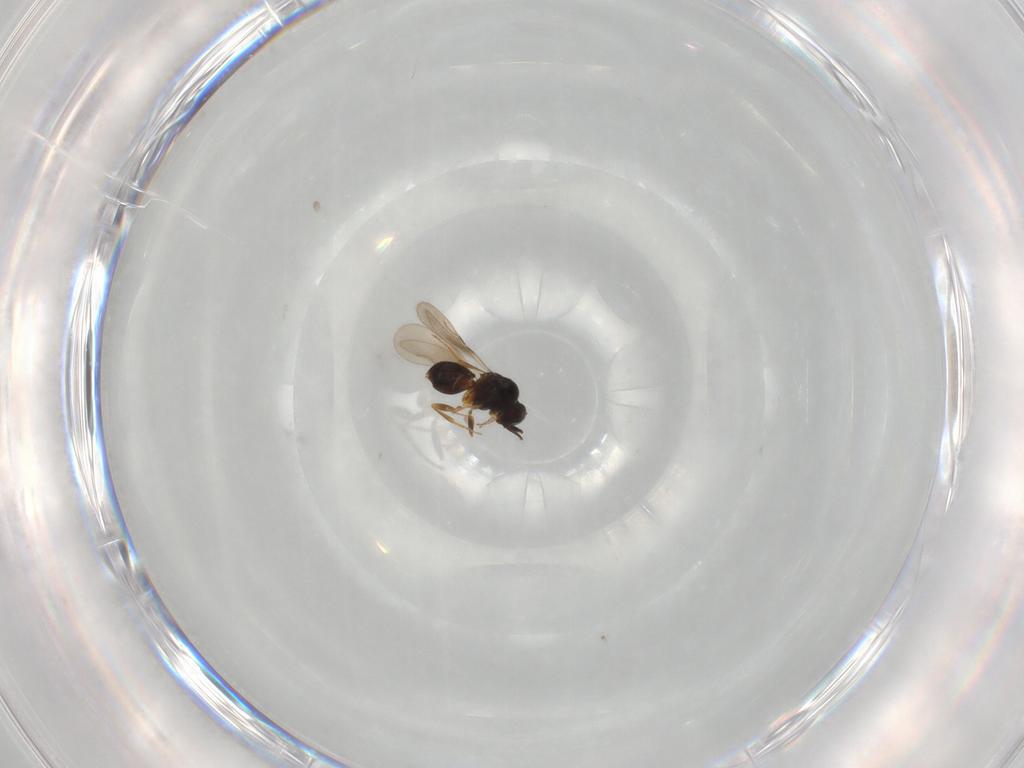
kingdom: Animalia
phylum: Arthropoda
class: Insecta
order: Hymenoptera
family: Ceraphronidae
